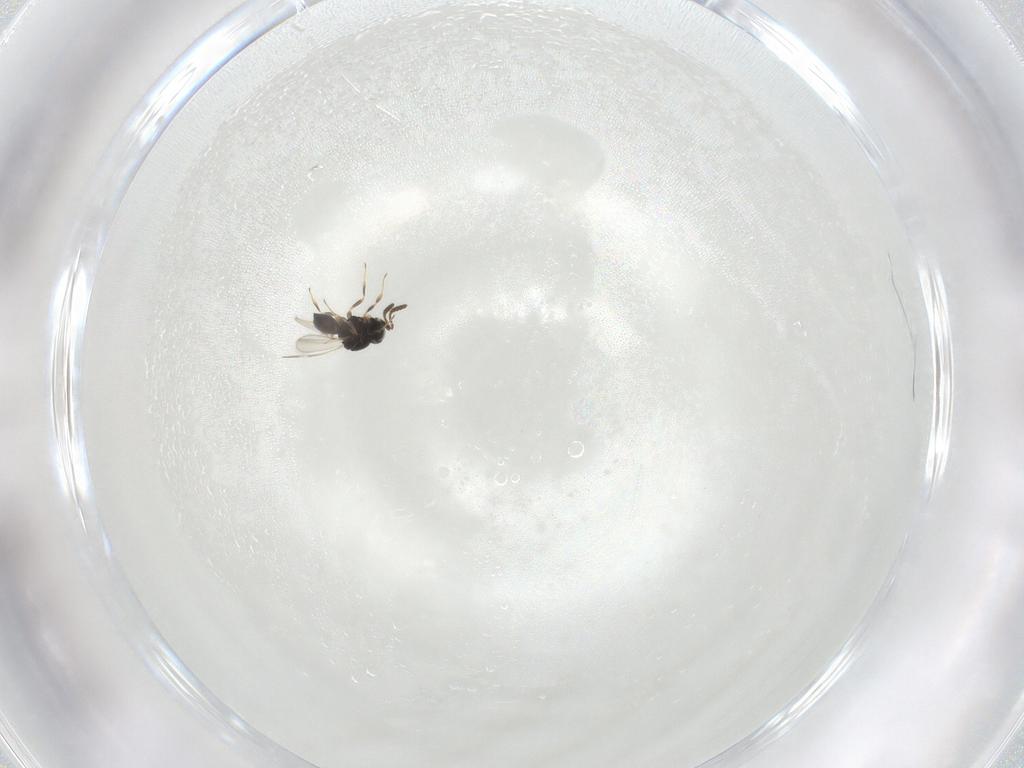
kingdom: Animalia
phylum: Arthropoda
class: Insecta
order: Hymenoptera
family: Scelionidae
